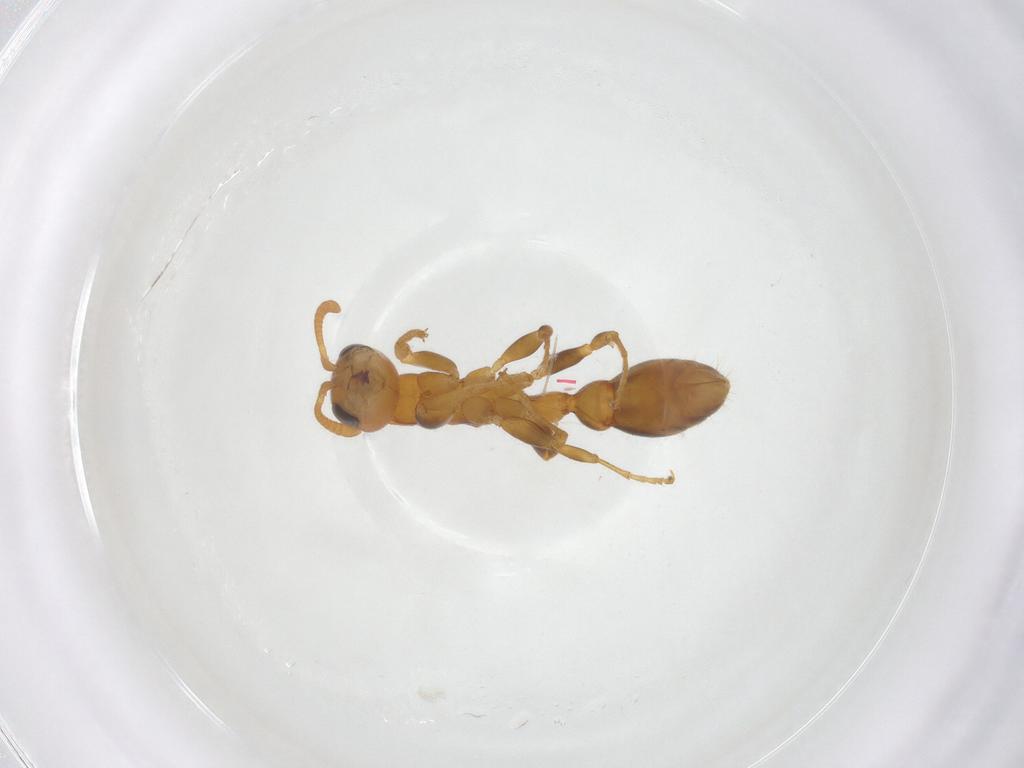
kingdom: Animalia
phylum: Arthropoda
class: Insecta
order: Hymenoptera
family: Formicidae
